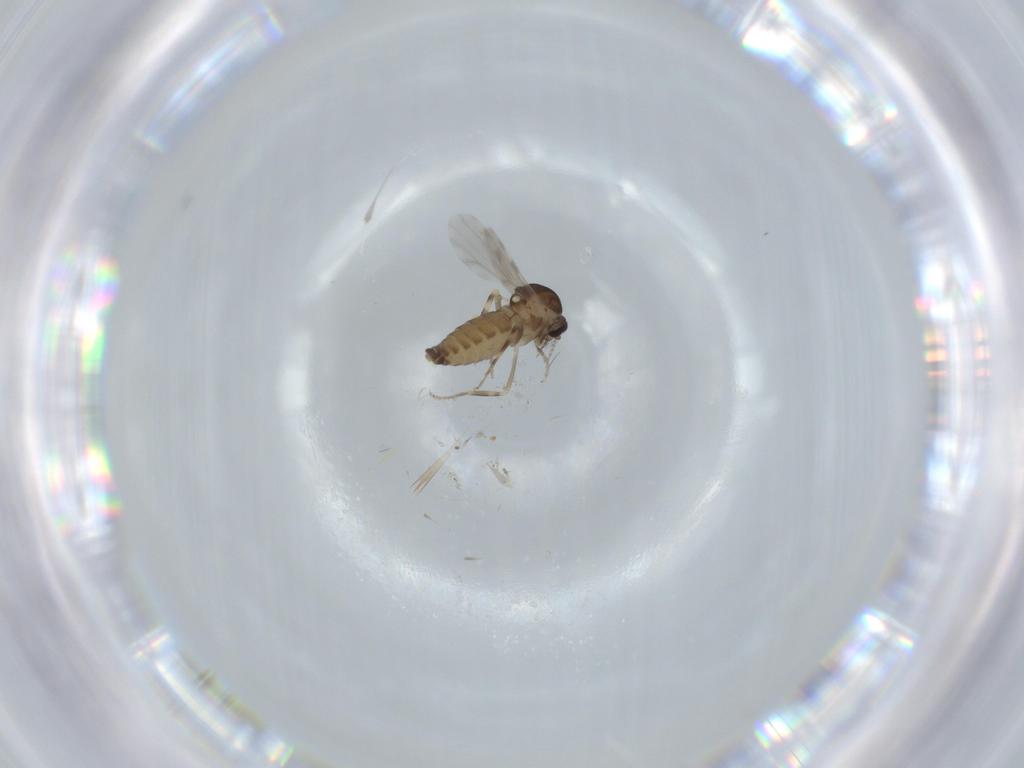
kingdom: Animalia
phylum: Arthropoda
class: Insecta
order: Diptera
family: Ceratopogonidae
